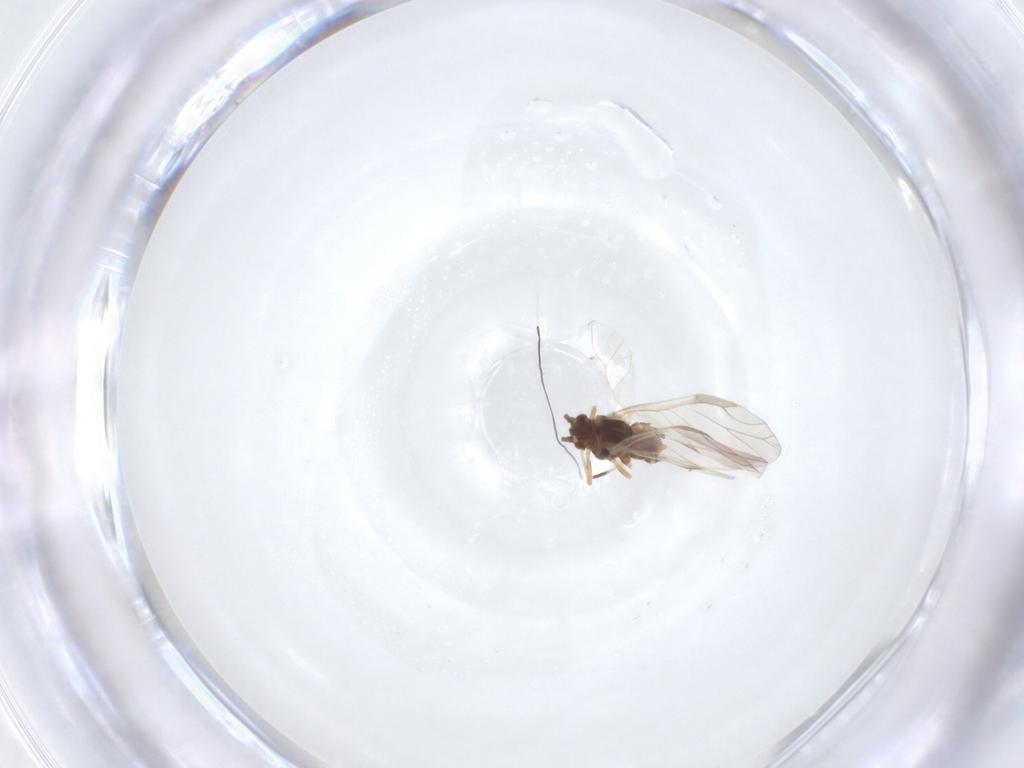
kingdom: Animalia
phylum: Arthropoda
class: Insecta
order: Hemiptera
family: Aphididae
